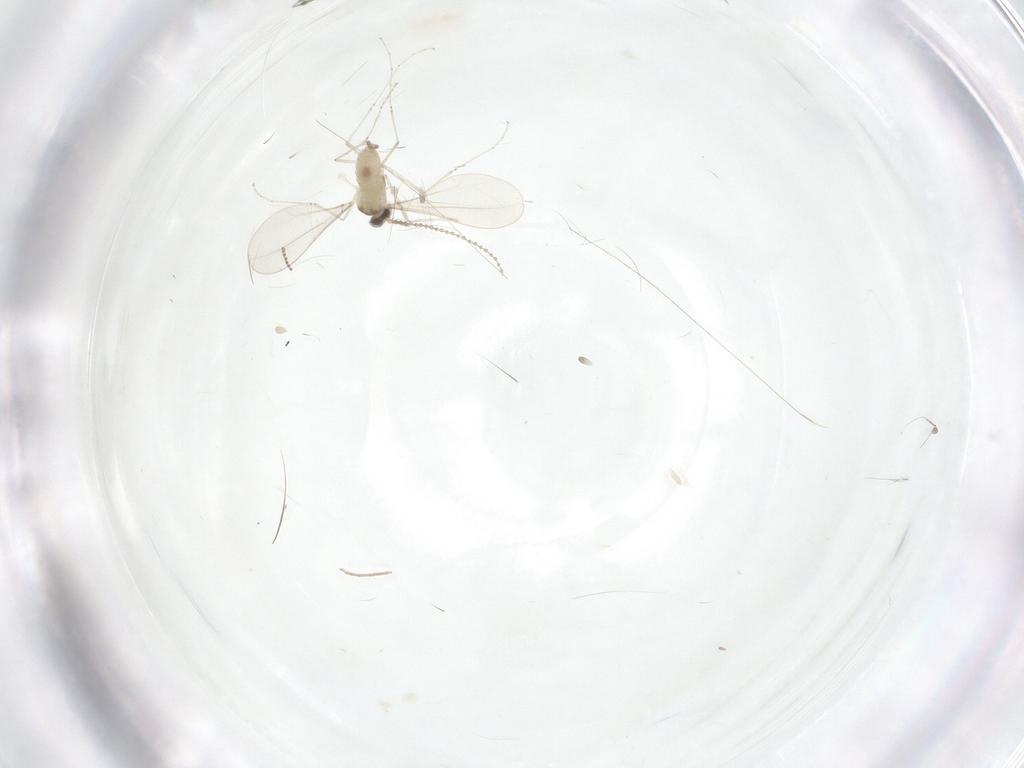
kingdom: Animalia
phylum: Arthropoda
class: Insecta
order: Diptera
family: Chironomidae
